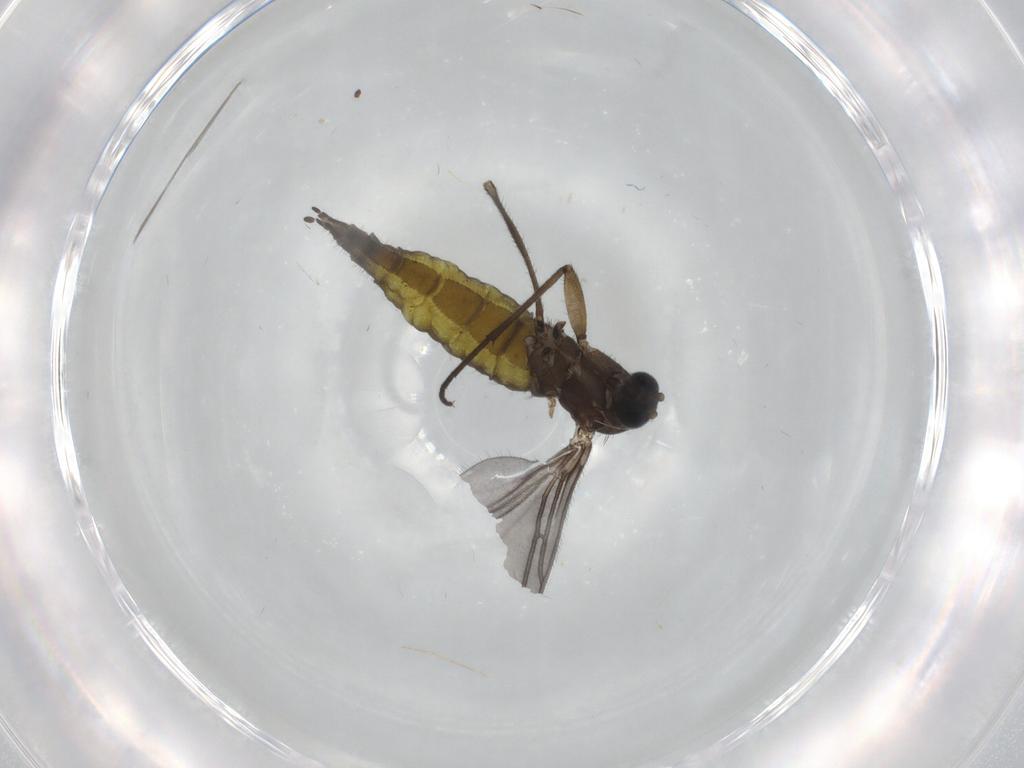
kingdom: Animalia
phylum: Arthropoda
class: Insecta
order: Diptera
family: Sciaridae
